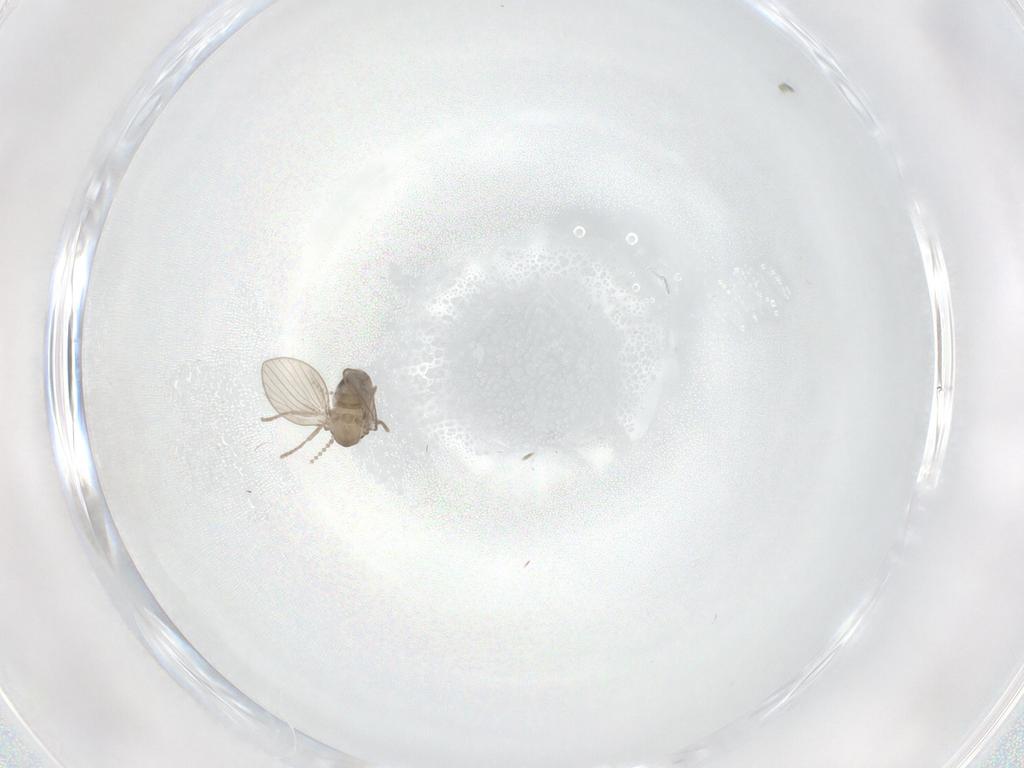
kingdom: Animalia
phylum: Arthropoda
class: Insecta
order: Diptera
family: Psychodidae
